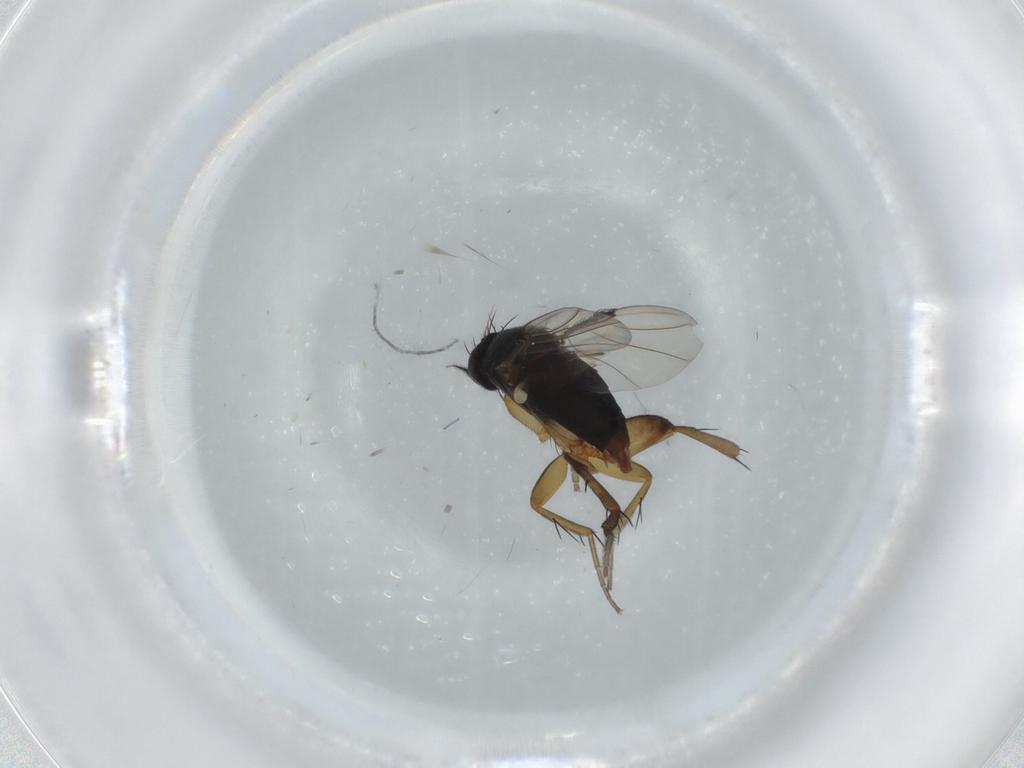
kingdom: Animalia
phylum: Arthropoda
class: Insecta
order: Diptera
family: Phoridae
